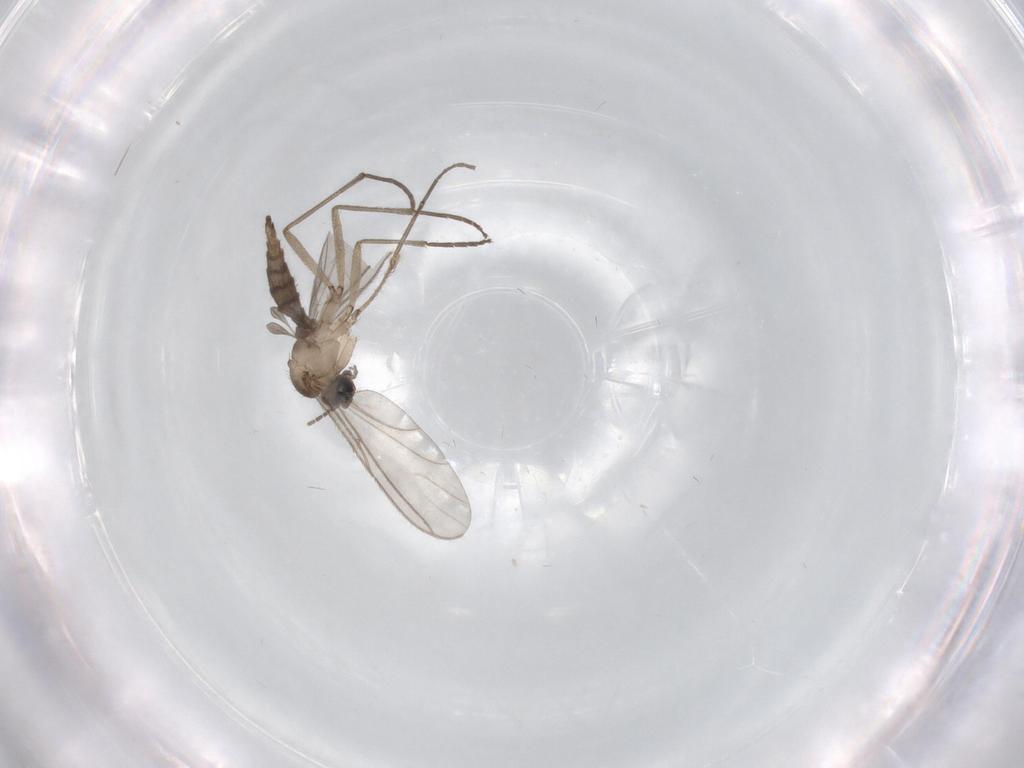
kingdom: Animalia
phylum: Arthropoda
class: Insecta
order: Diptera
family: Sciaridae
